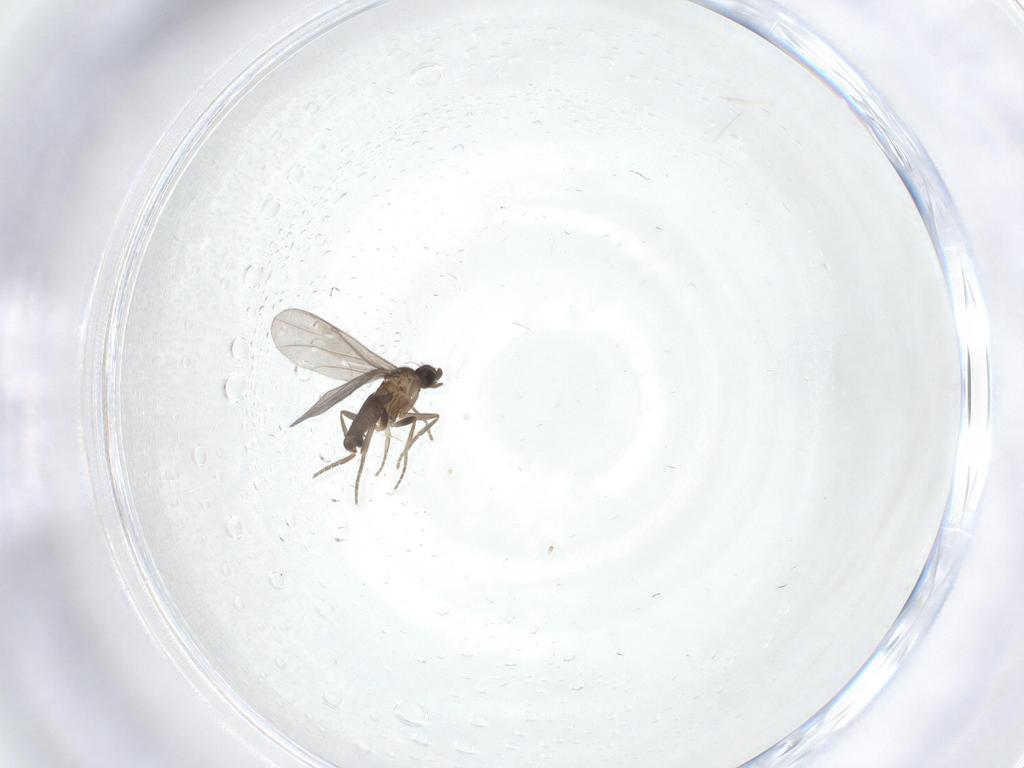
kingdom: Animalia
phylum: Arthropoda
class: Insecta
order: Diptera
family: Phoridae
